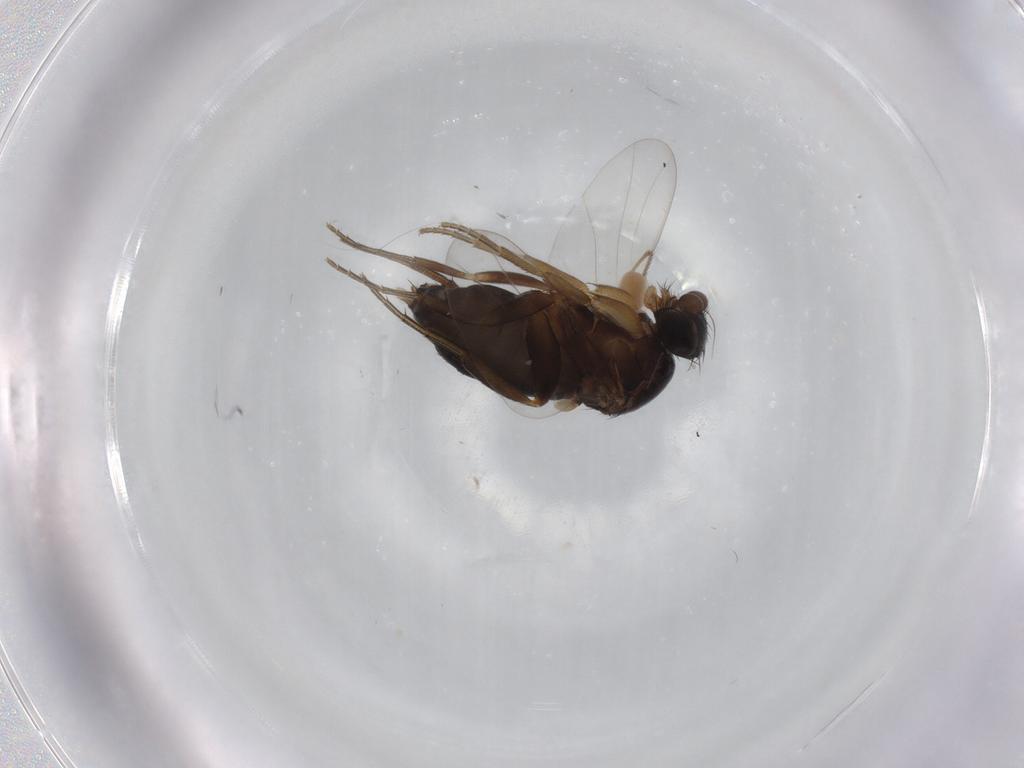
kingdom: Animalia
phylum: Arthropoda
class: Insecta
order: Diptera
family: Phoridae
